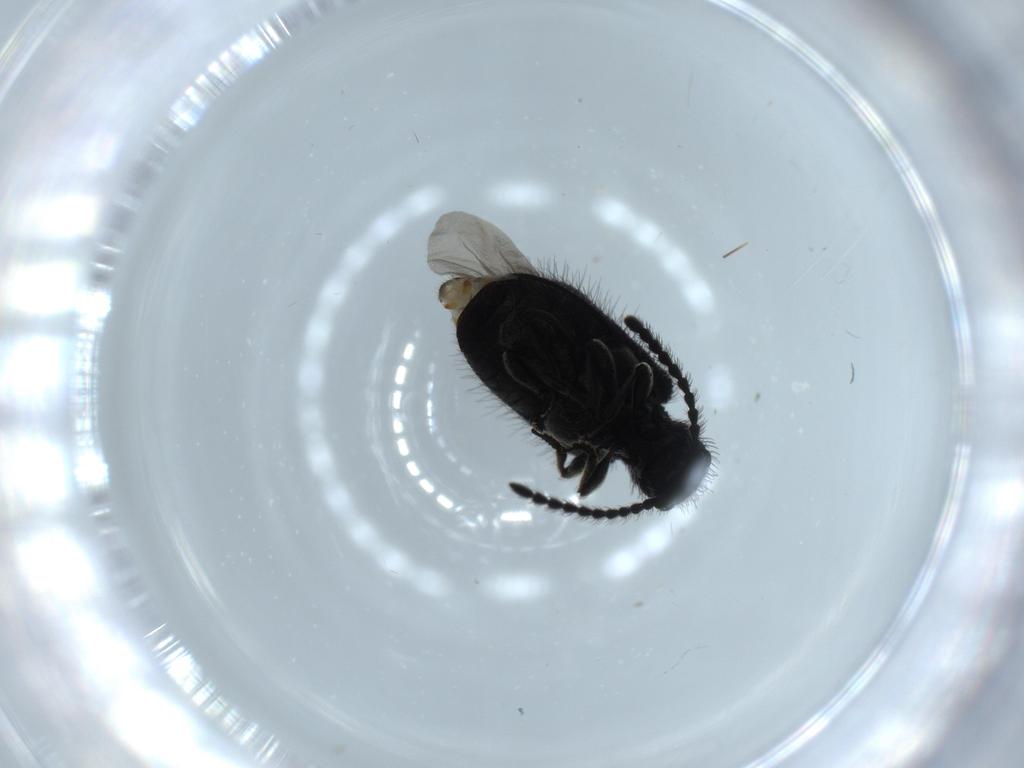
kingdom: Animalia
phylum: Arthropoda
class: Insecta
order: Coleoptera
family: Ptinidae
